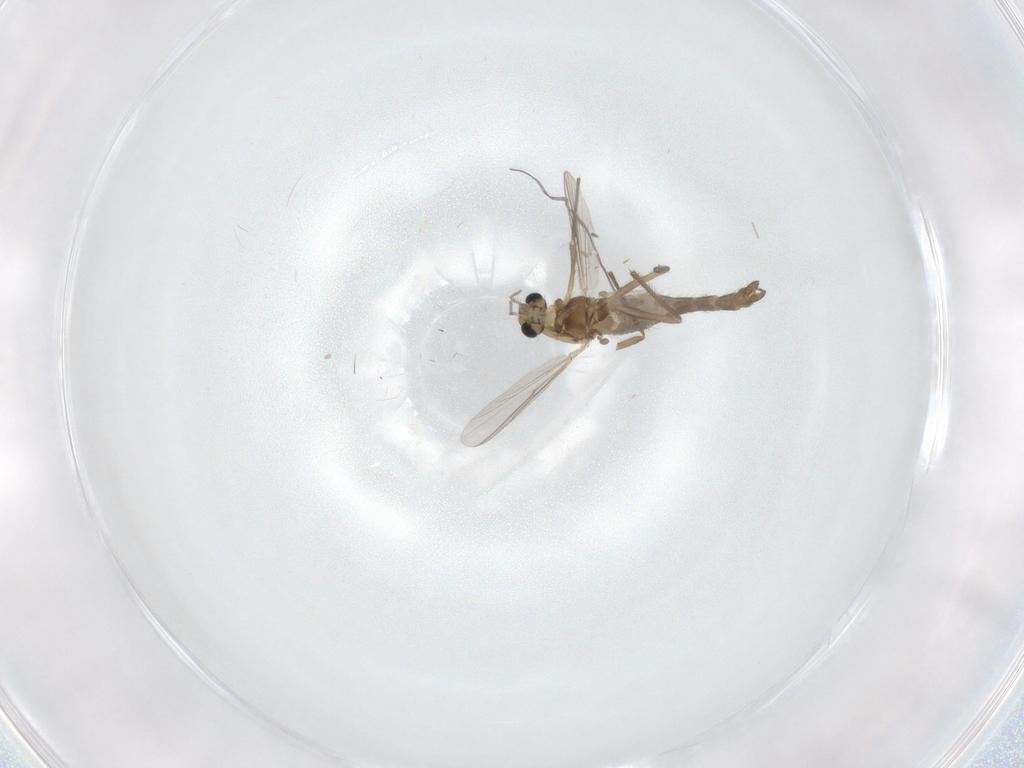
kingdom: Animalia
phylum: Arthropoda
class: Insecta
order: Diptera
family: Chironomidae
